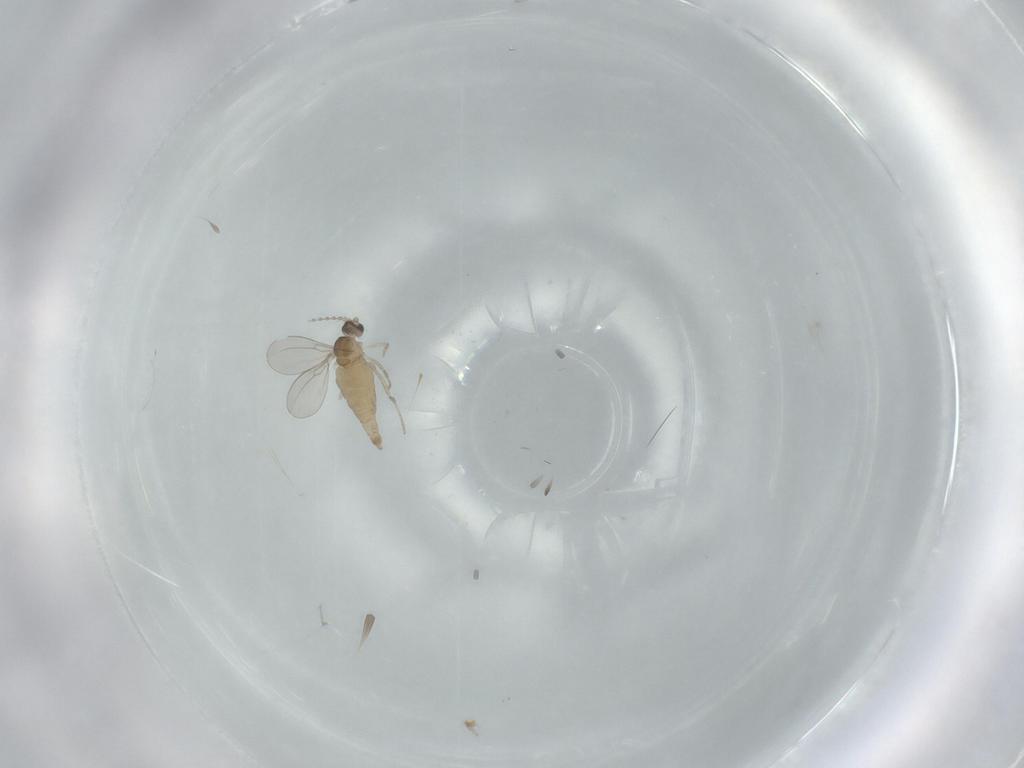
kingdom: Animalia
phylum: Arthropoda
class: Insecta
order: Diptera
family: Cecidomyiidae
